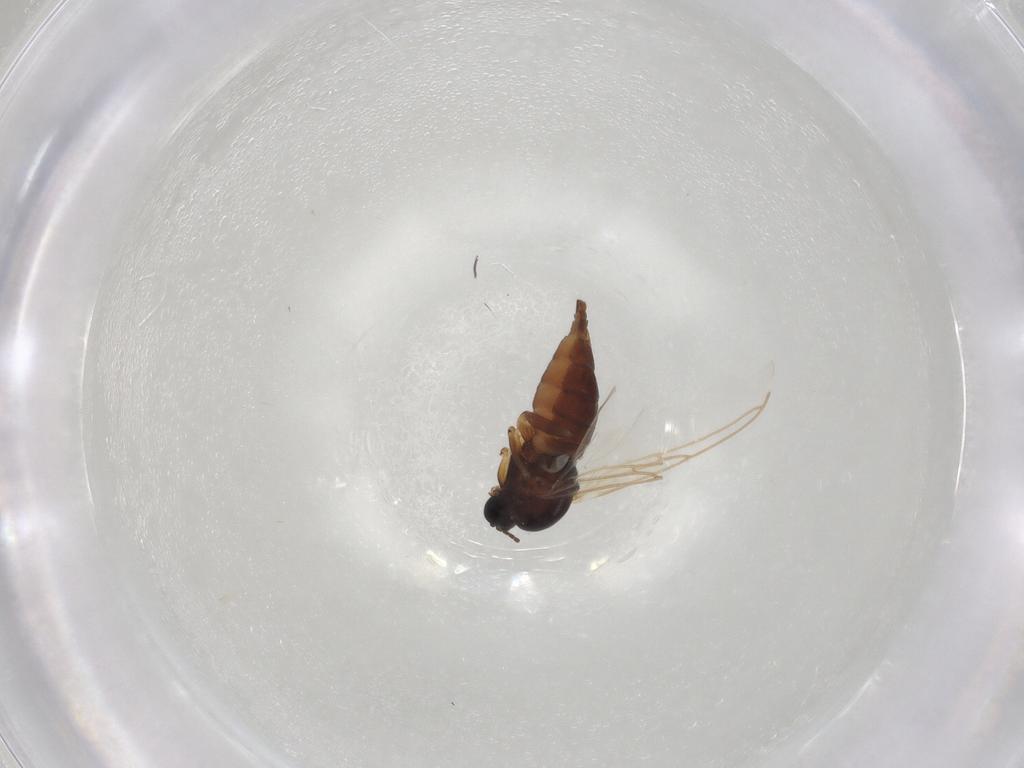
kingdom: Animalia
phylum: Arthropoda
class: Insecta
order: Diptera
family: Sciaridae
